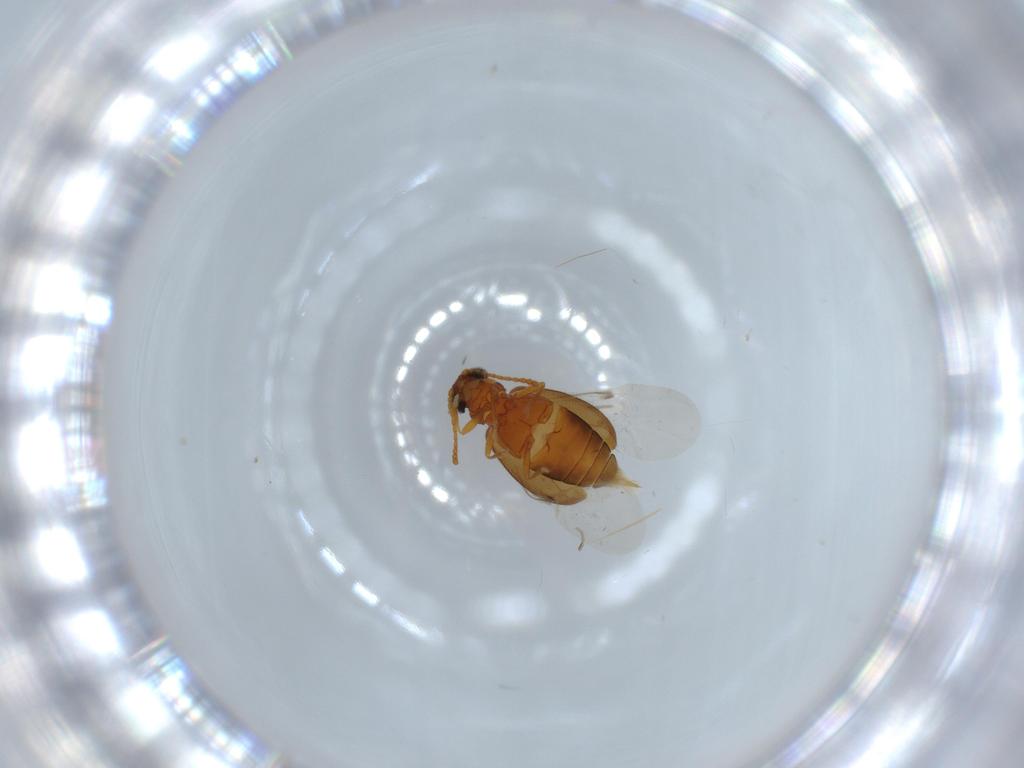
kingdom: Animalia
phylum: Arthropoda
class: Insecta
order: Coleoptera
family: Aderidae
